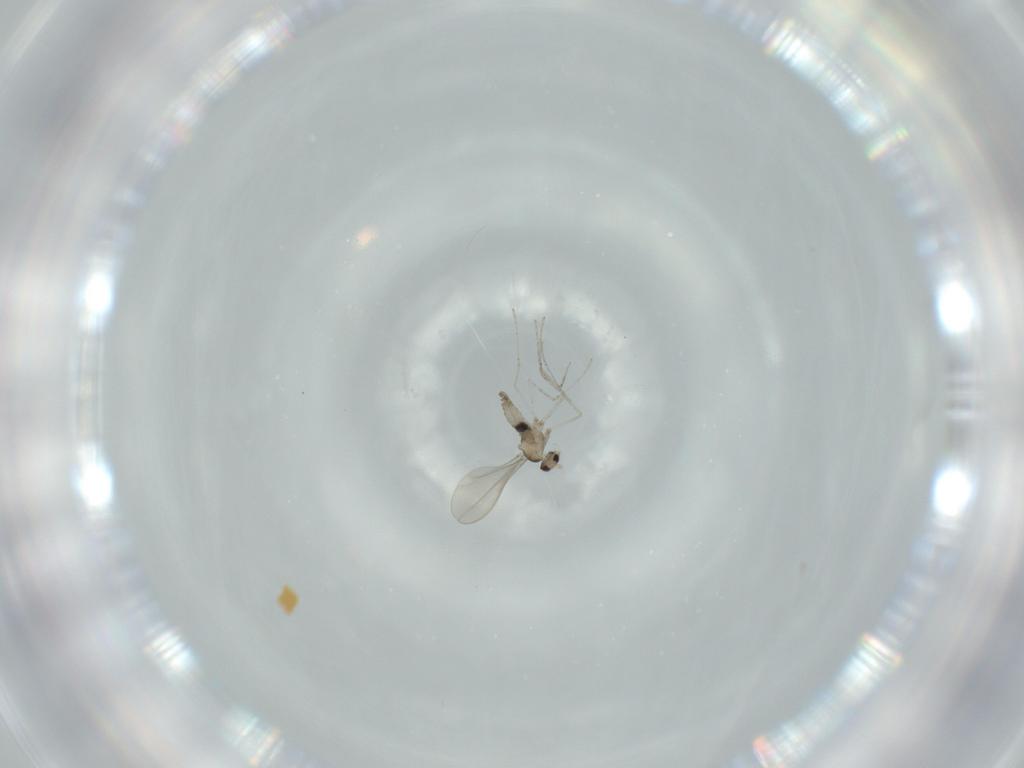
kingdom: Animalia
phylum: Arthropoda
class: Insecta
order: Diptera
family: Cecidomyiidae
